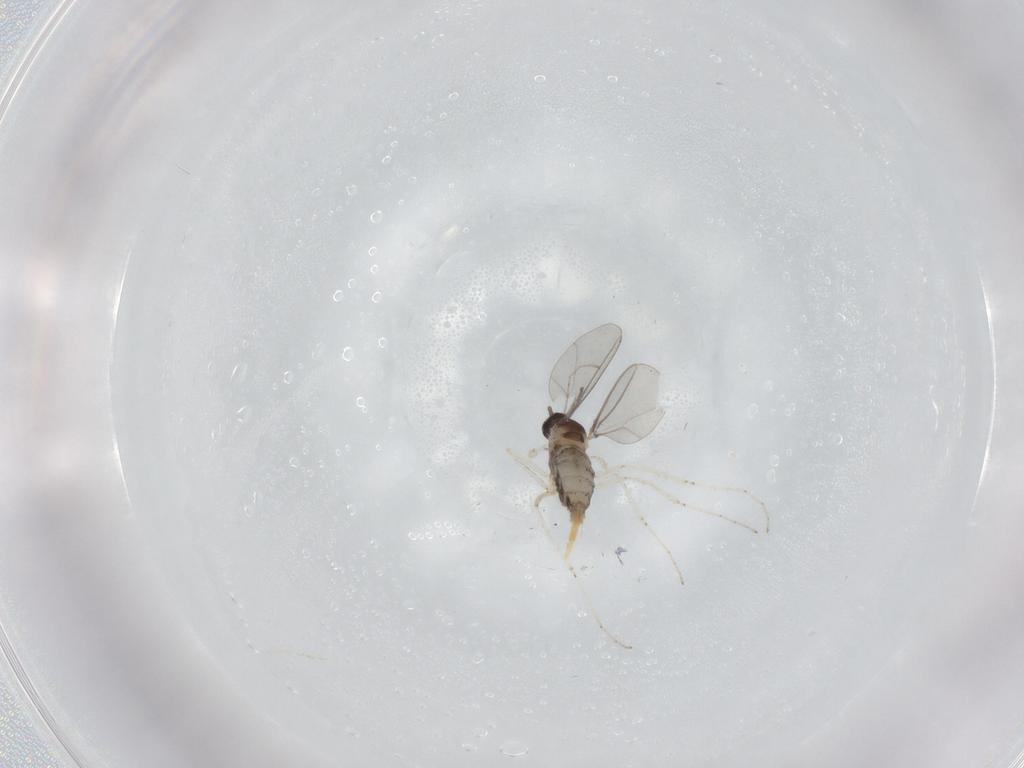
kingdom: Animalia
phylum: Arthropoda
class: Insecta
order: Diptera
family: Cecidomyiidae
